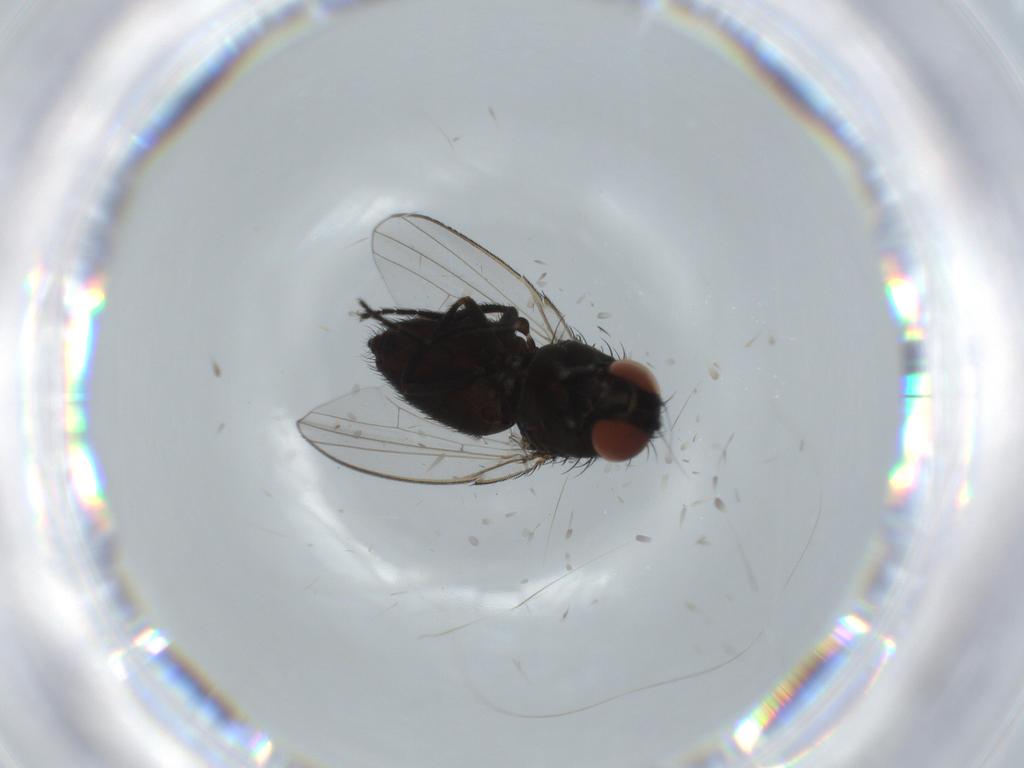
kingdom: Animalia
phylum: Arthropoda
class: Insecta
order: Diptera
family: Milichiidae
